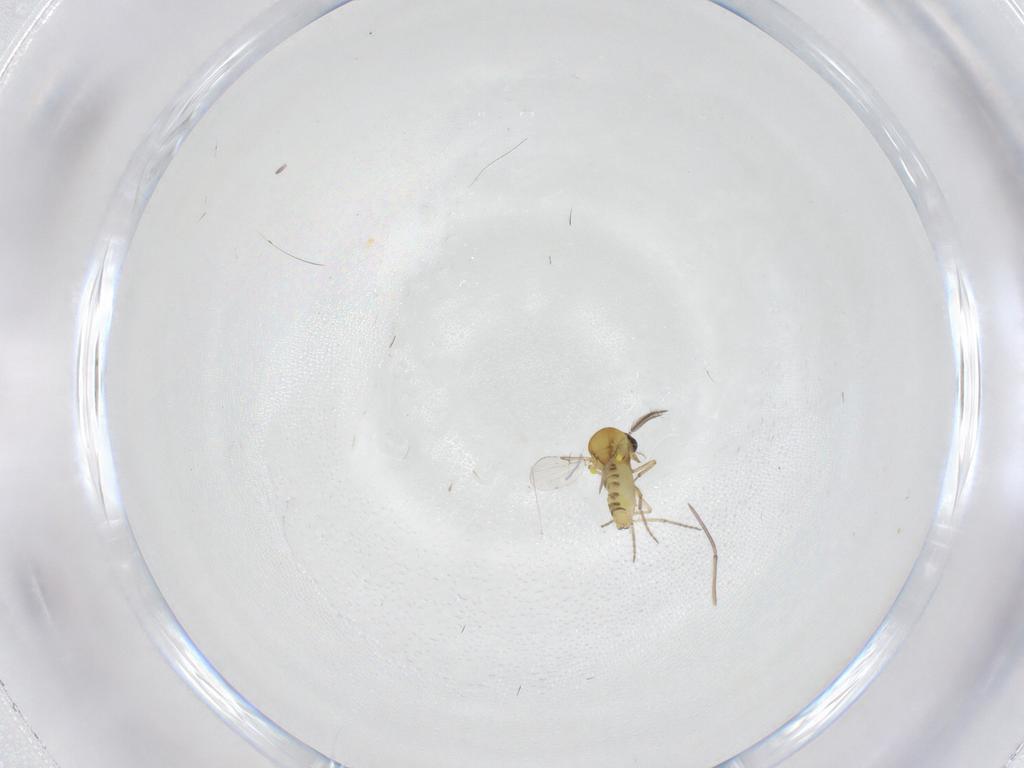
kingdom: Animalia
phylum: Arthropoda
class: Insecta
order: Diptera
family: Ceratopogonidae
